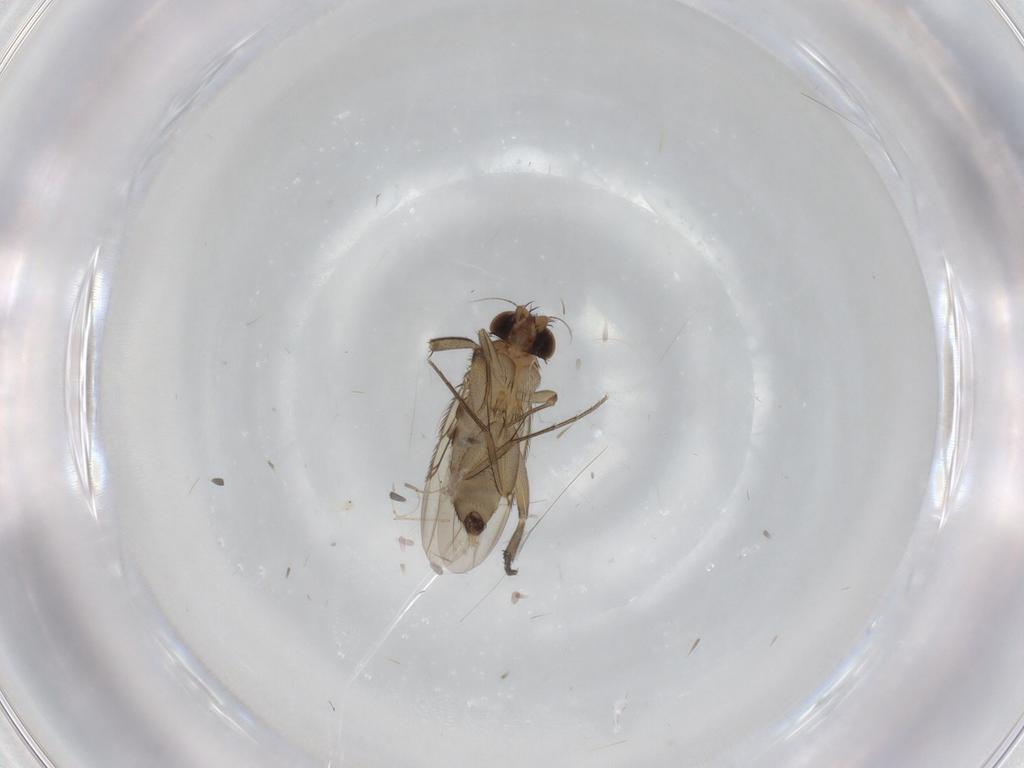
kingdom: Animalia
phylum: Arthropoda
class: Insecta
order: Diptera
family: Phoridae
